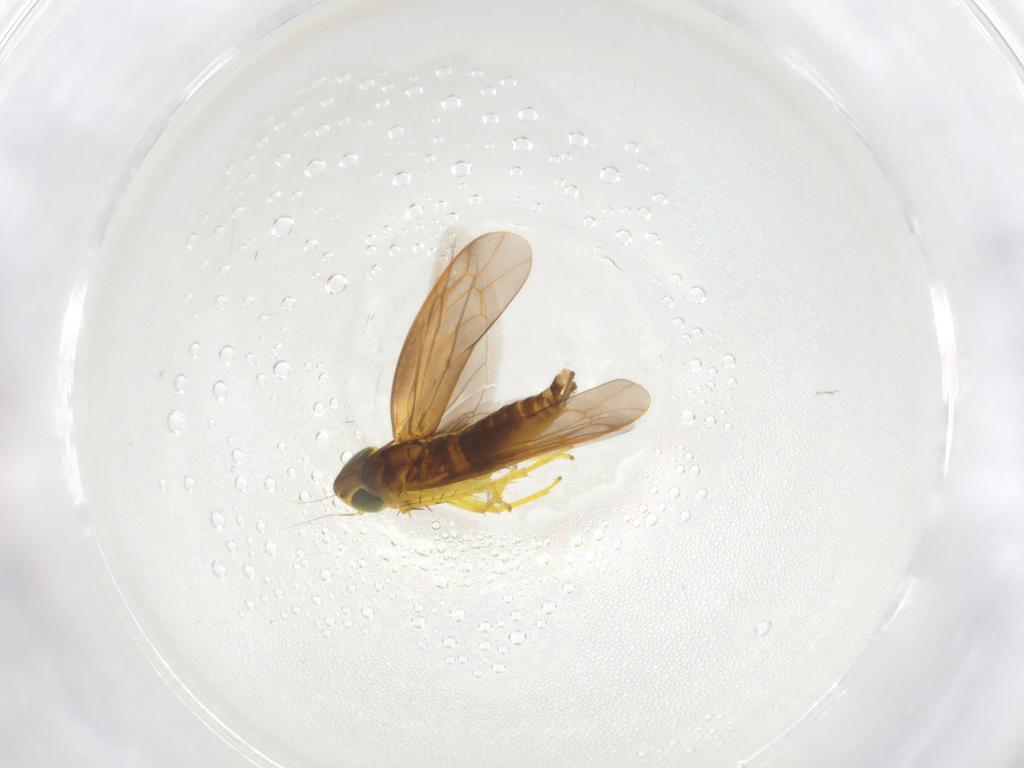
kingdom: Animalia
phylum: Arthropoda
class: Insecta
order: Hemiptera
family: Cicadellidae
